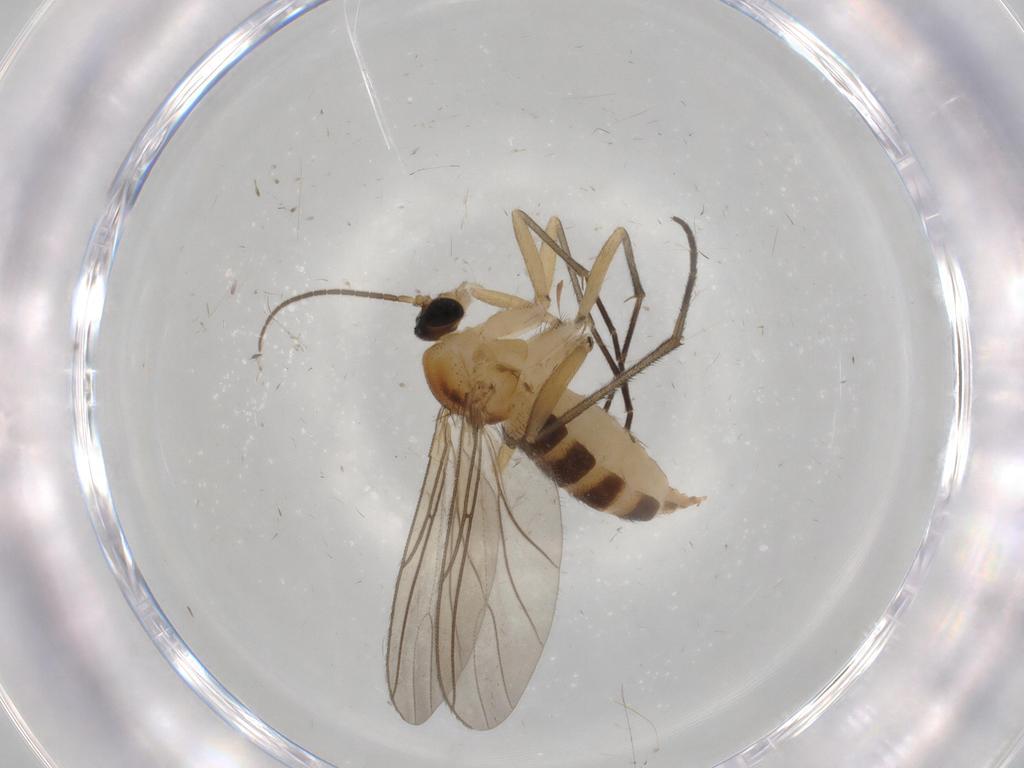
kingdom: Animalia
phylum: Arthropoda
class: Insecta
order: Diptera
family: Sciaridae
